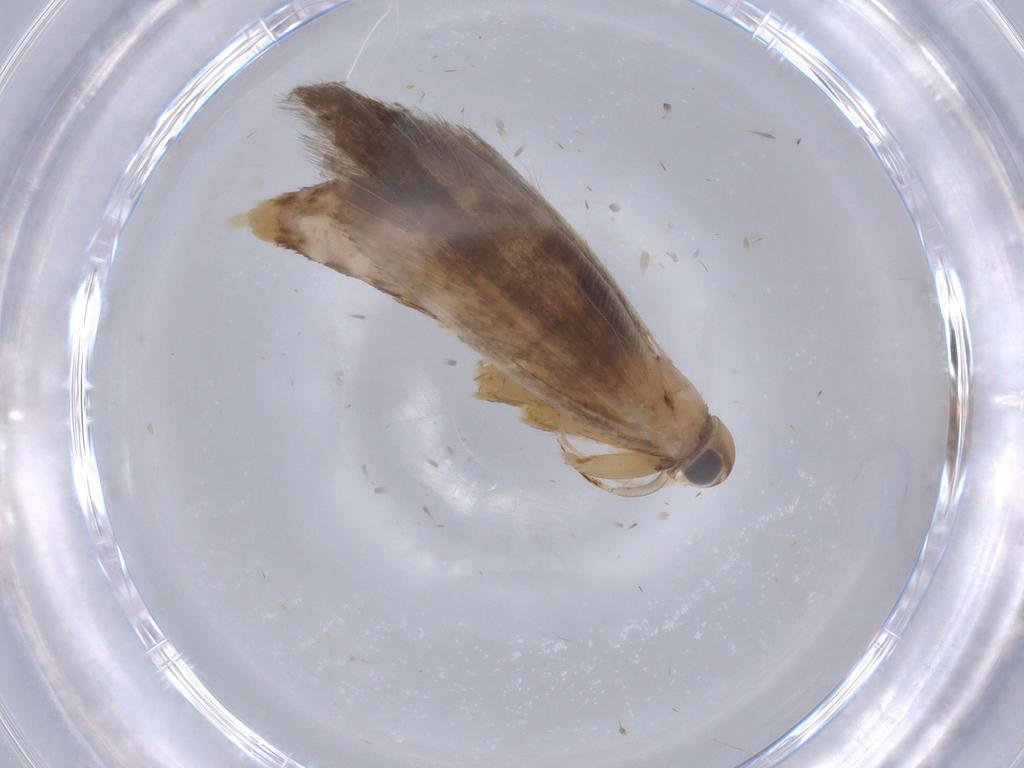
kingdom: Animalia
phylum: Arthropoda
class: Insecta
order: Lepidoptera
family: Gelechiidae
